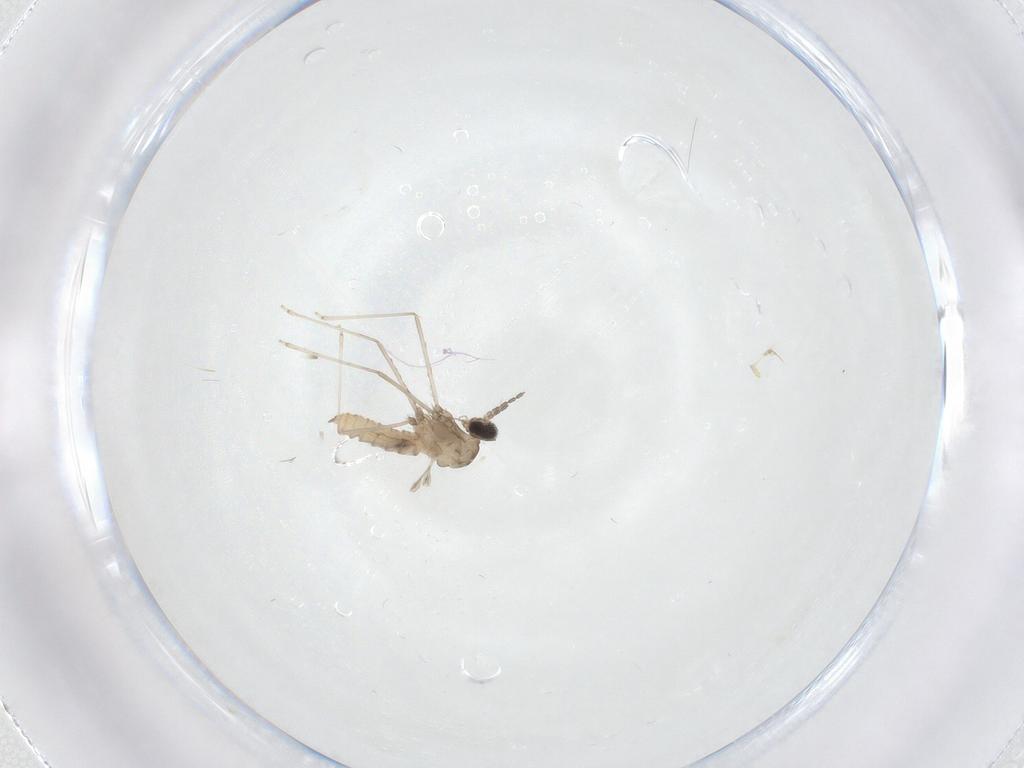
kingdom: Animalia
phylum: Arthropoda
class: Insecta
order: Diptera
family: Cecidomyiidae
